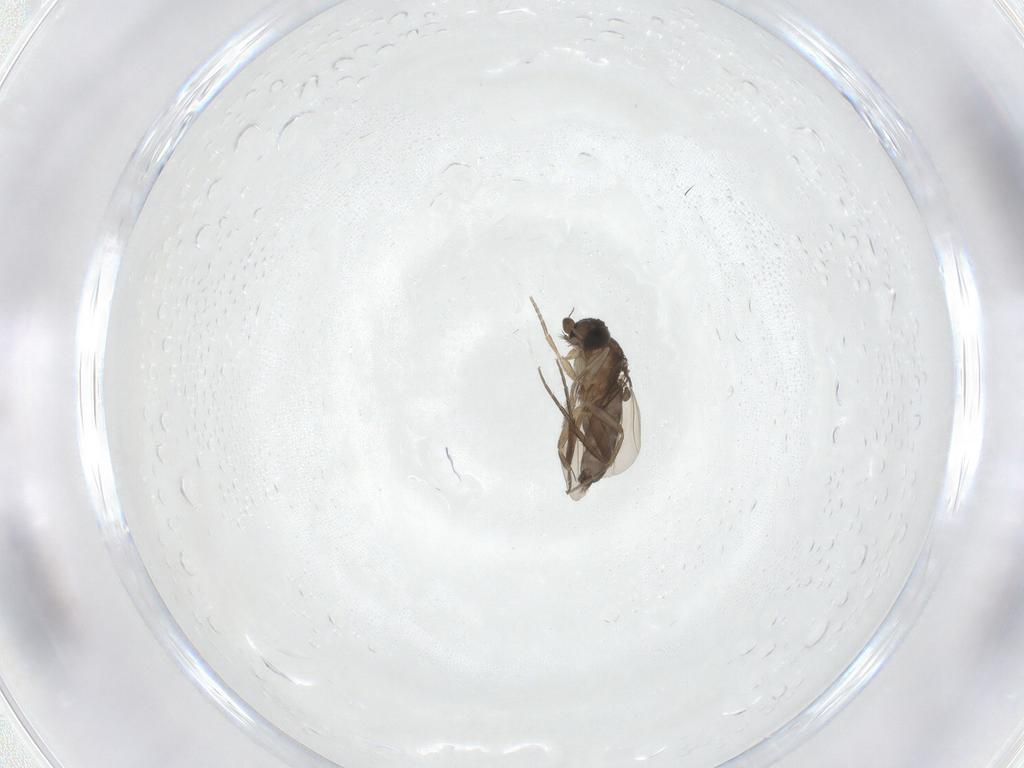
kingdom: Animalia
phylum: Arthropoda
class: Insecta
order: Diptera
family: Phoridae
